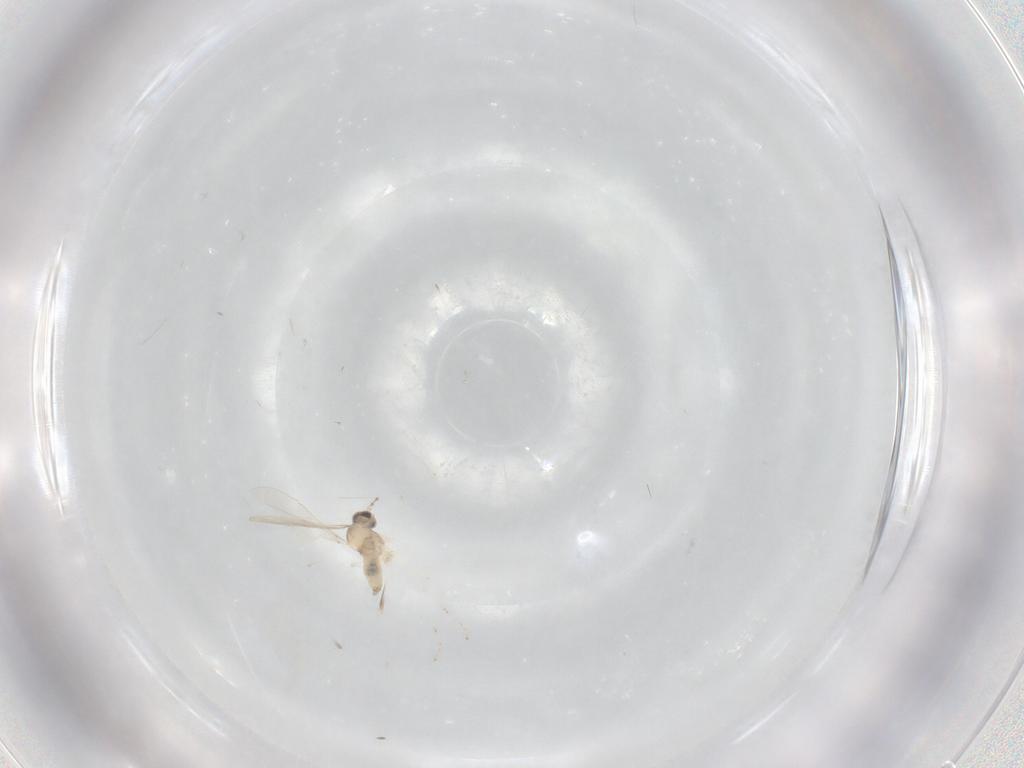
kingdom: Animalia
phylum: Arthropoda
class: Insecta
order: Diptera
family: Cecidomyiidae
